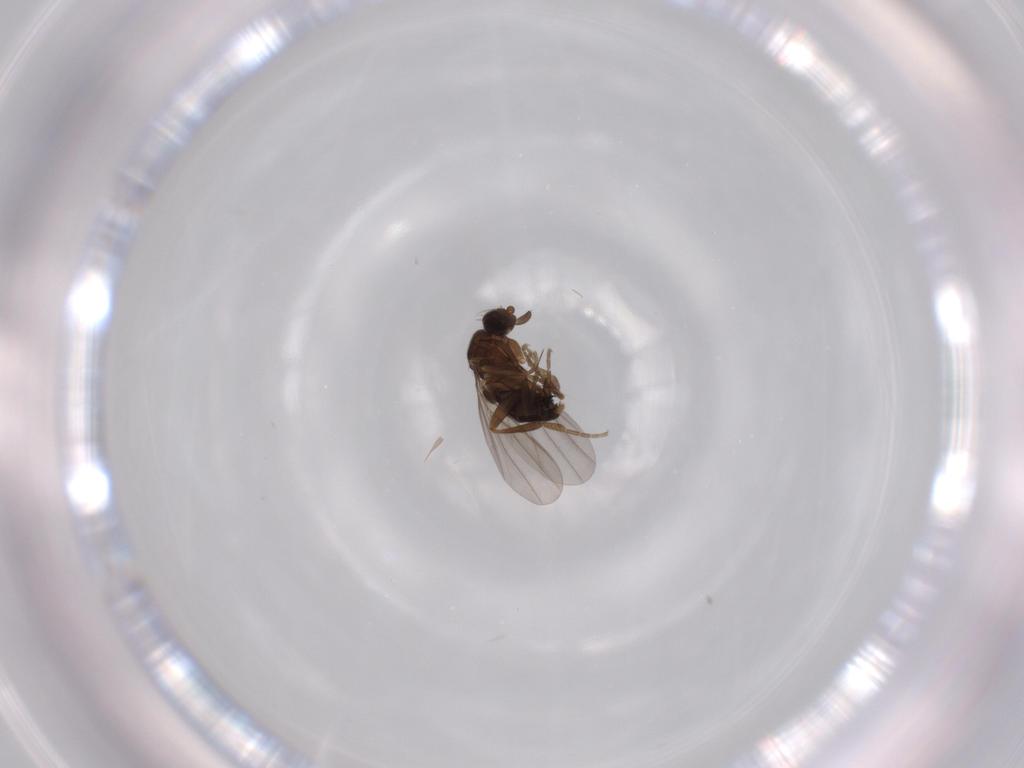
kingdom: Animalia
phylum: Arthropoda
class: Insecta
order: Diptera
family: Phoridae
